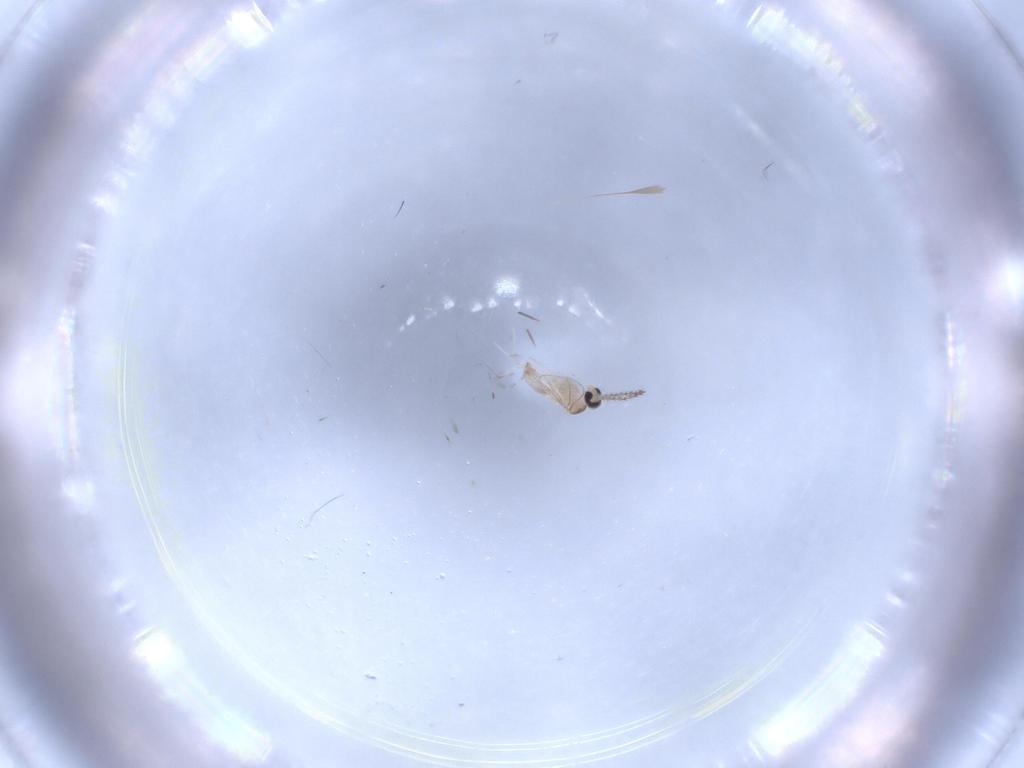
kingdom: Animalia
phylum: Arthropoda
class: Insecta
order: Diptera
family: Cecidomyiidae
